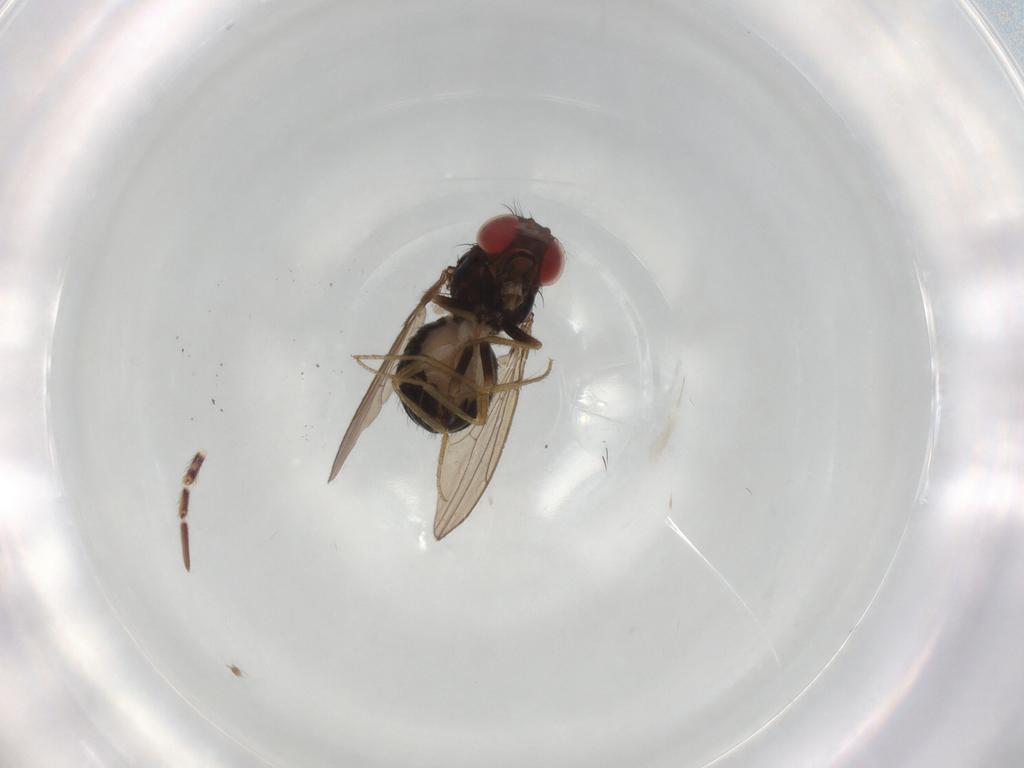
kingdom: Animalia
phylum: Arthropoda
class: Insecta
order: Diptera
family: Drosophilidae
